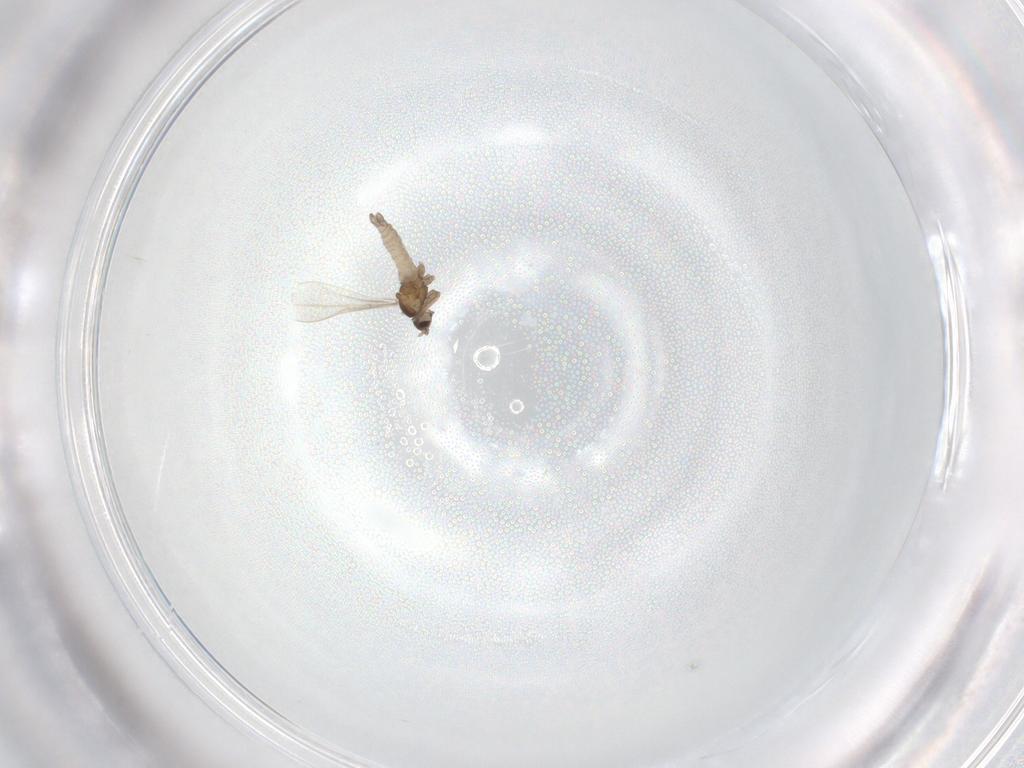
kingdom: Animalia
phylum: Arthropoda
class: Insecta
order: Diptera
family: Cecidomyiidae
